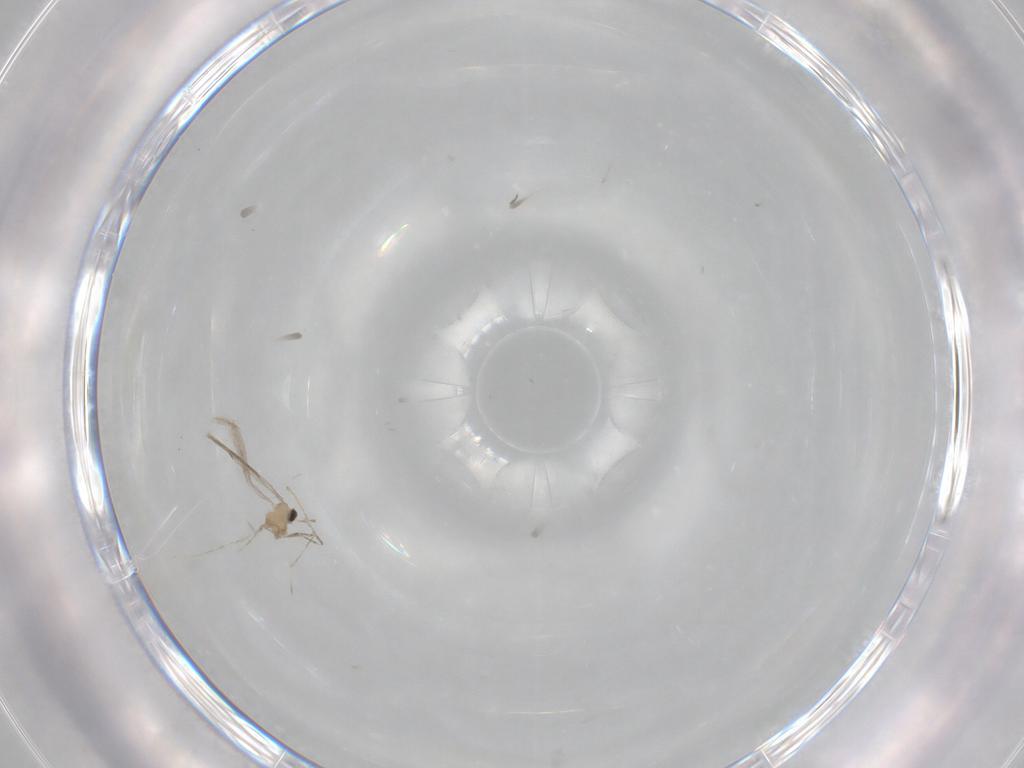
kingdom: Animalia
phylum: Arthropoda
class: Insecta
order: Diptera
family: Cecidomyiidae
